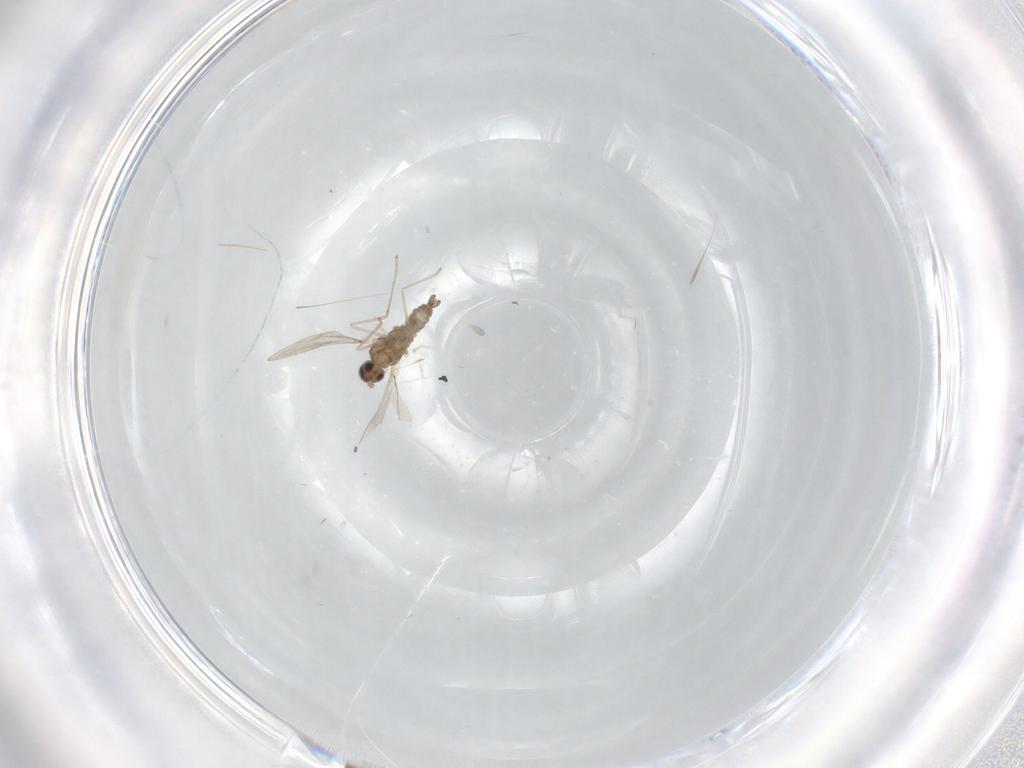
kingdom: Animalia
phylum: Arthropoda
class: Insecta
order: Diptera
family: Cecidomyiidae
